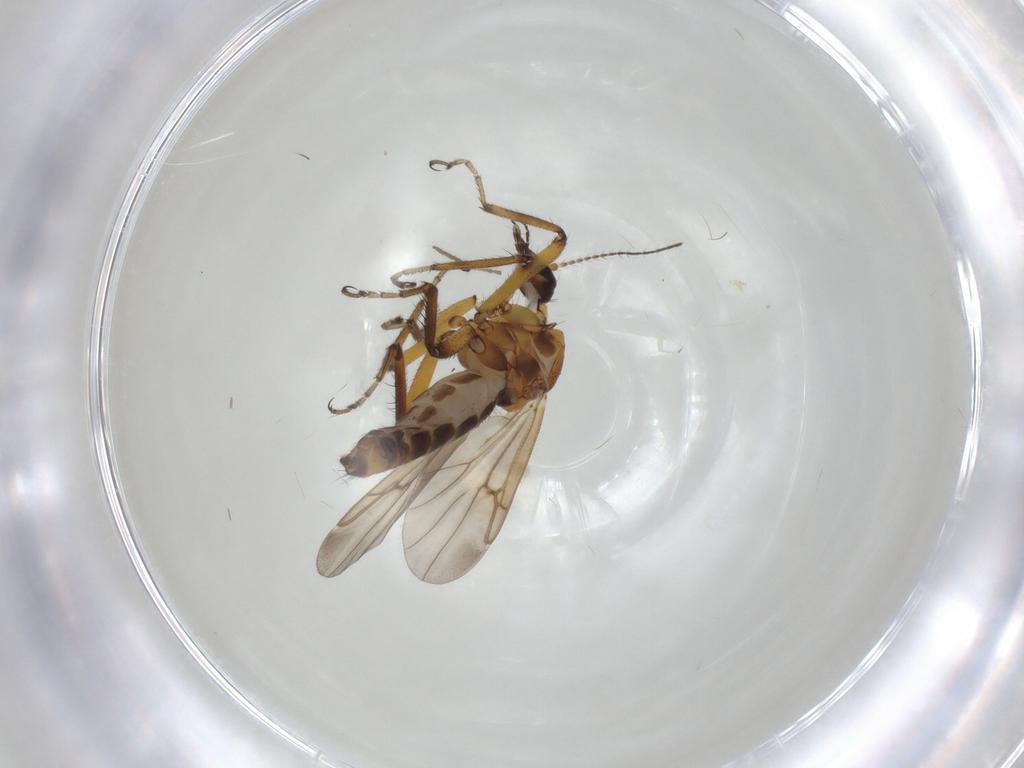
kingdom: Animalia
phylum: Arthropoda
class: Insecta
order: Diptera
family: Ceratopogonidae
